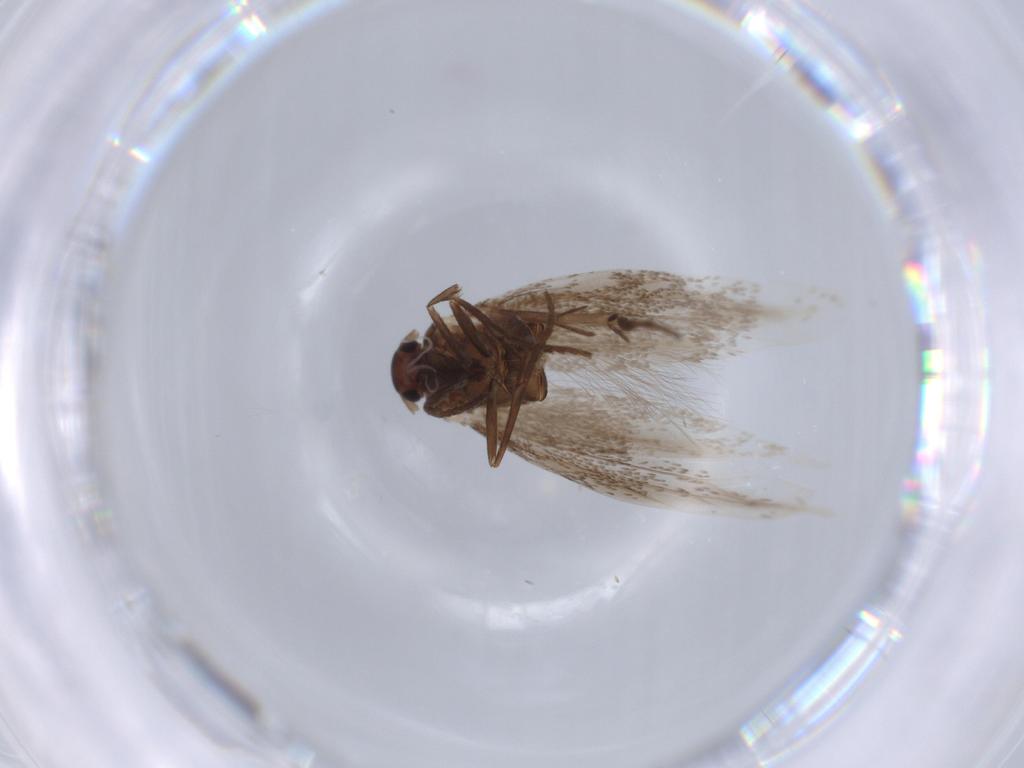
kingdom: Animalia
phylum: Arthropoda
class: Insecta
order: Lepidoptera
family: Elachistidae
